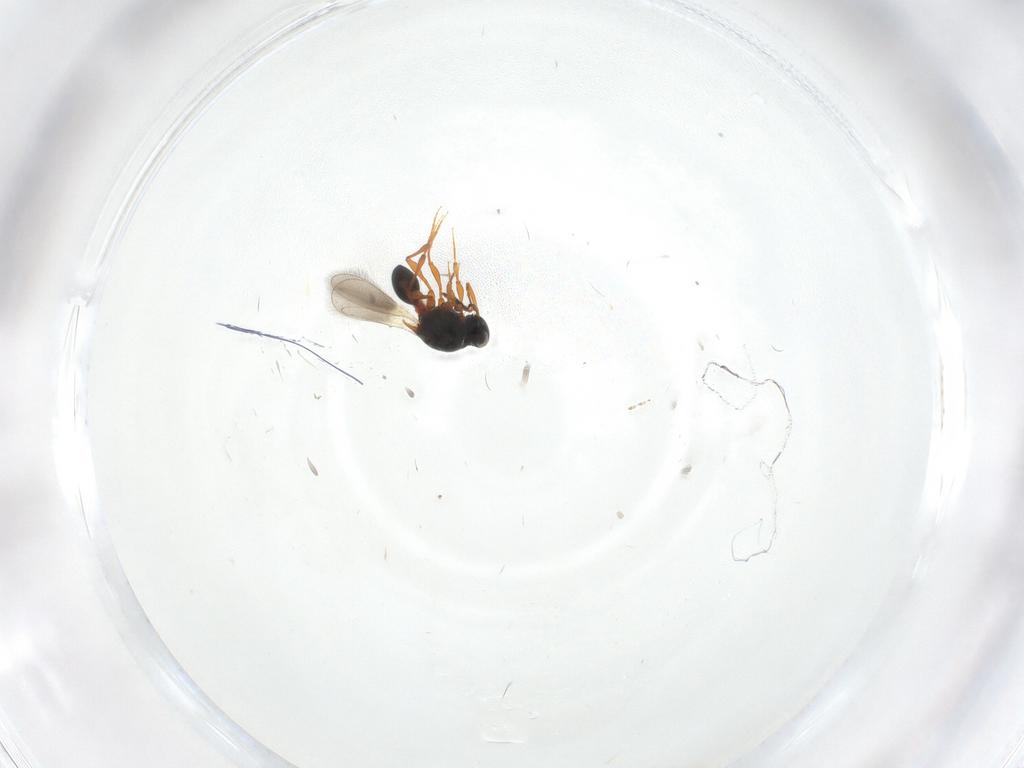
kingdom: Animalia
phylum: Arthropoda
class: Insecta
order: Hymenoptera
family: Platygastridae
